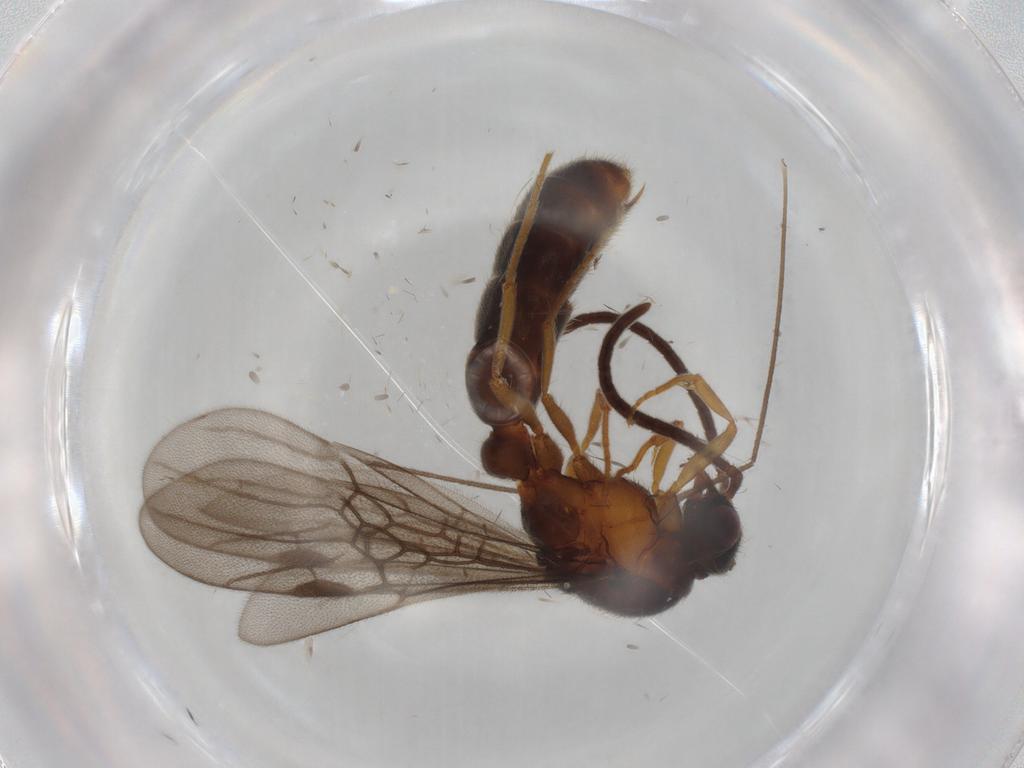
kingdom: Animalia
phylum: Arthropoda
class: Insecta
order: Hymenoptera
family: Formicidae
